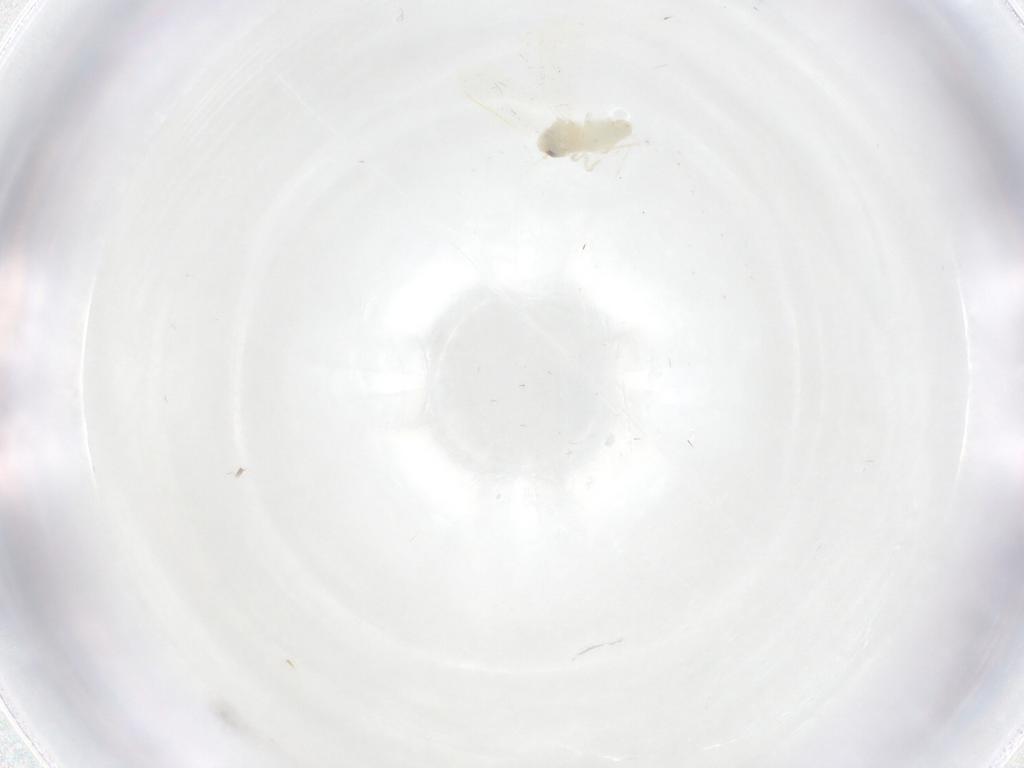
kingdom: Animalia
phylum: Arthropoda
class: Insecta
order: Hemiptera
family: Aleyrodidae
